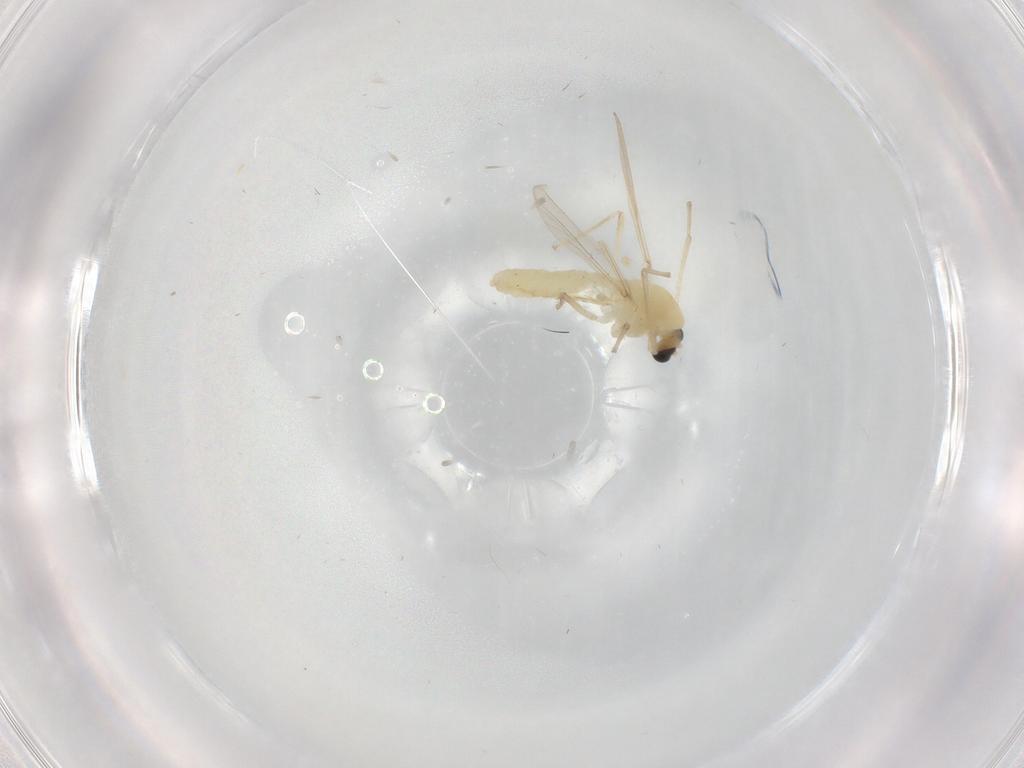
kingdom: Animalia
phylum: Arthropoda
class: Insecta
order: Diptera
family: Chironomidae
